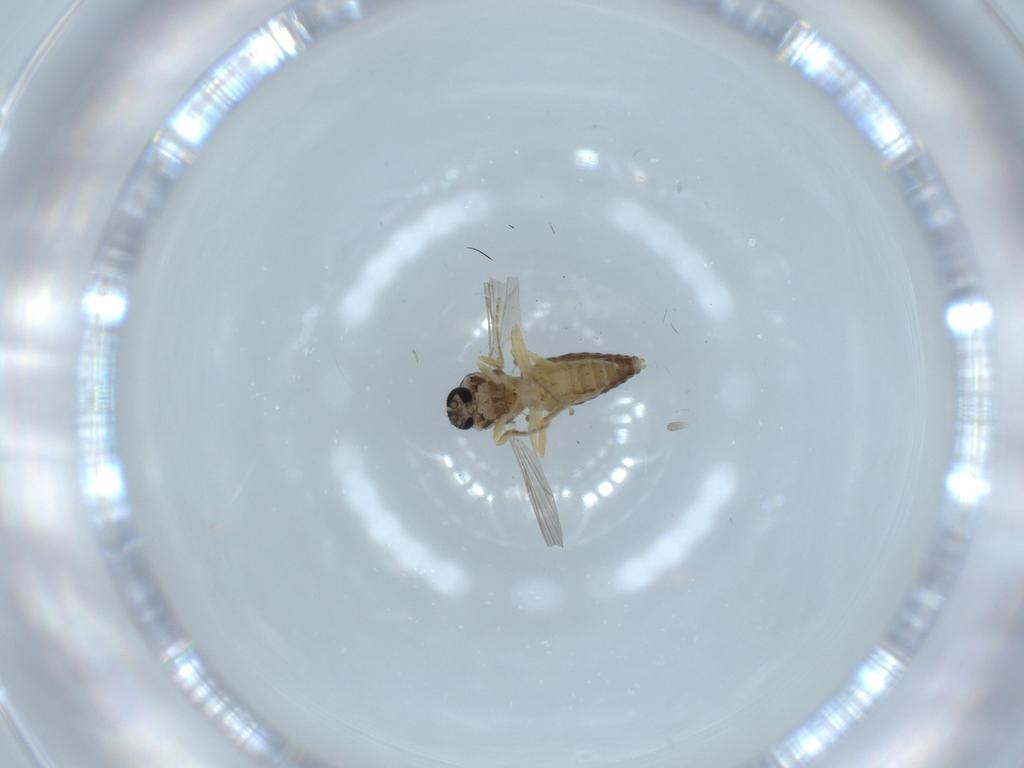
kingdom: Animalia
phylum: Arthropoda
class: Insecta
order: Diptera
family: Ceratopogonidae
